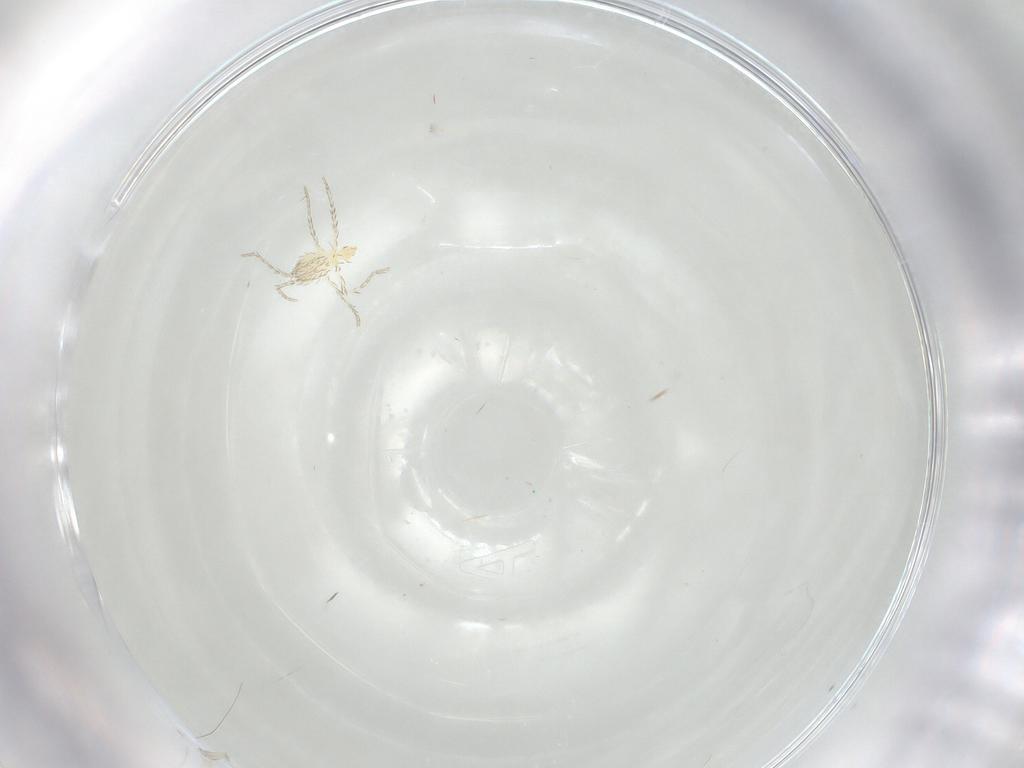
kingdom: Animalia
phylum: Arthropoda
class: Arachnida
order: Trombidiformes
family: Erythraeidae
